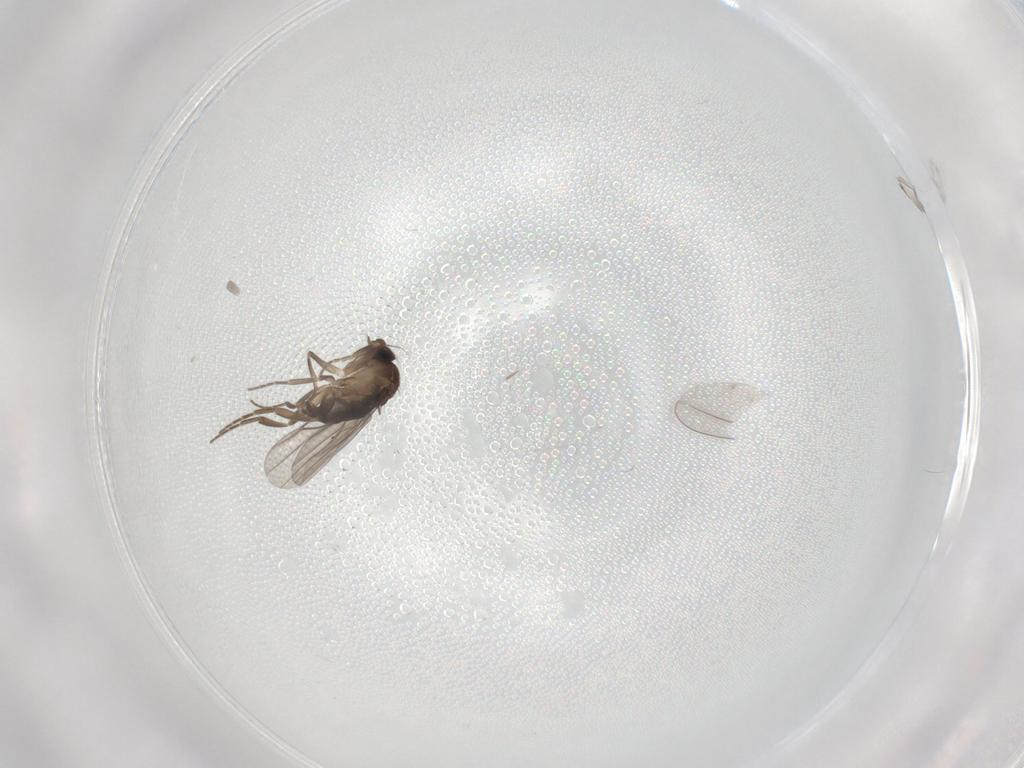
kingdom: Animalia
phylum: Arthropoda
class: Insecta
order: Diptera
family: Phoridae
